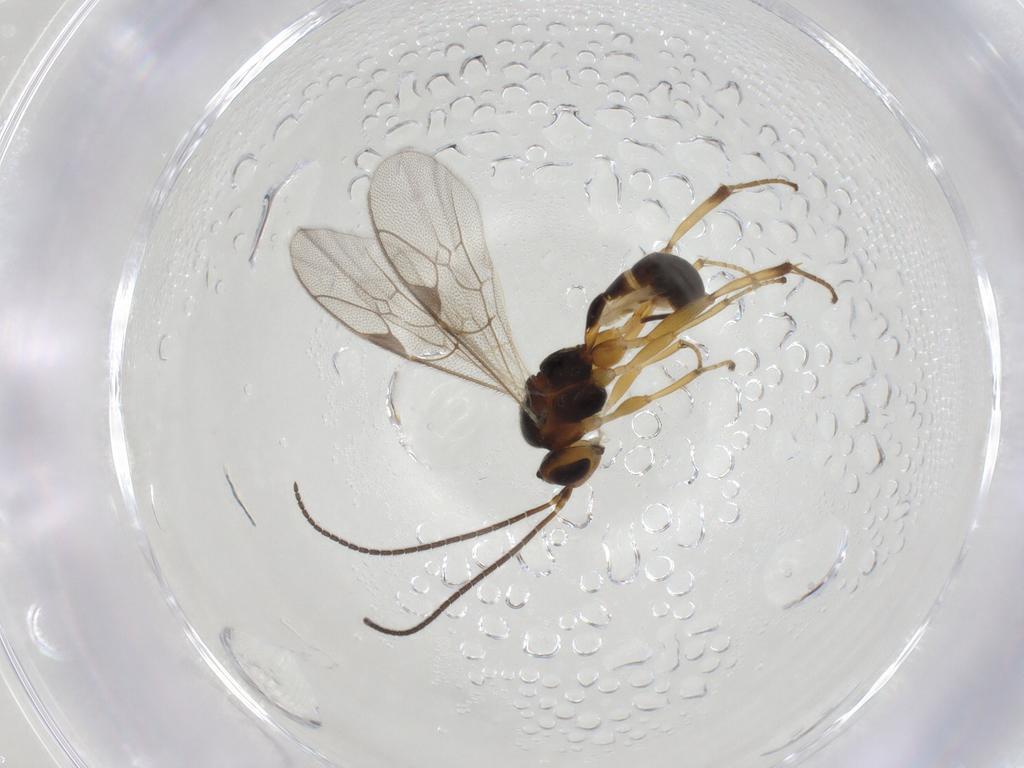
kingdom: Animalia
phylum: Arthropoda
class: Insecta
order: Hymenoptera
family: Ichneumonidae
